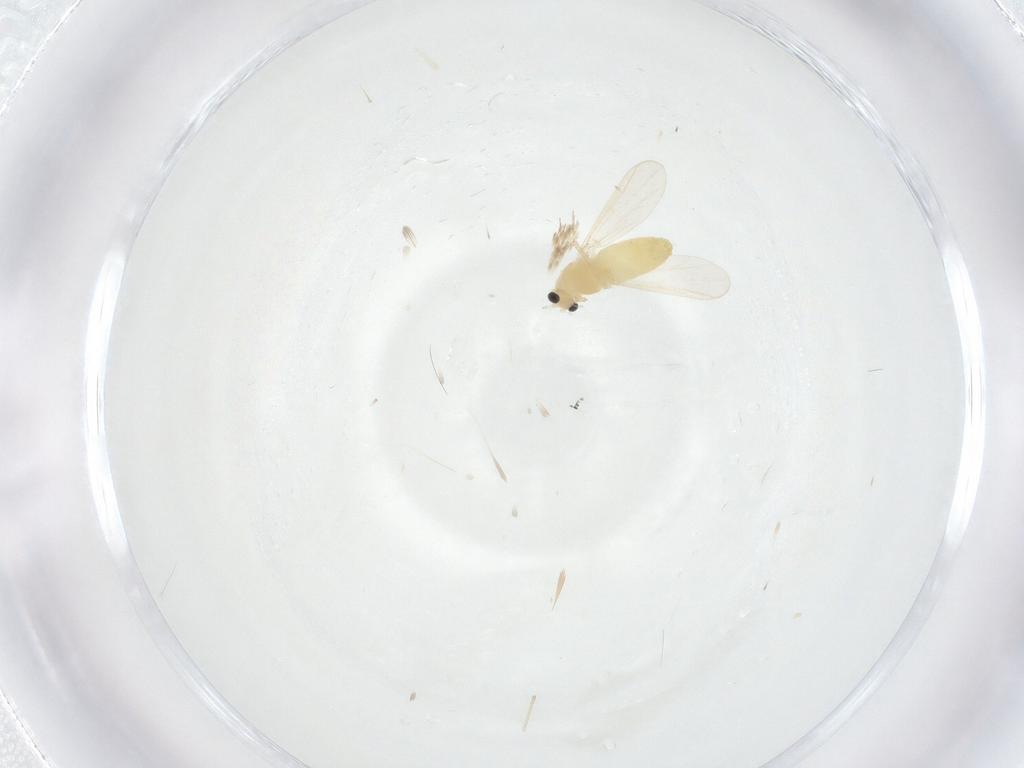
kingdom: Animalia
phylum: Arthropoda
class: Insecta
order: Diptera
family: Chironomidae
